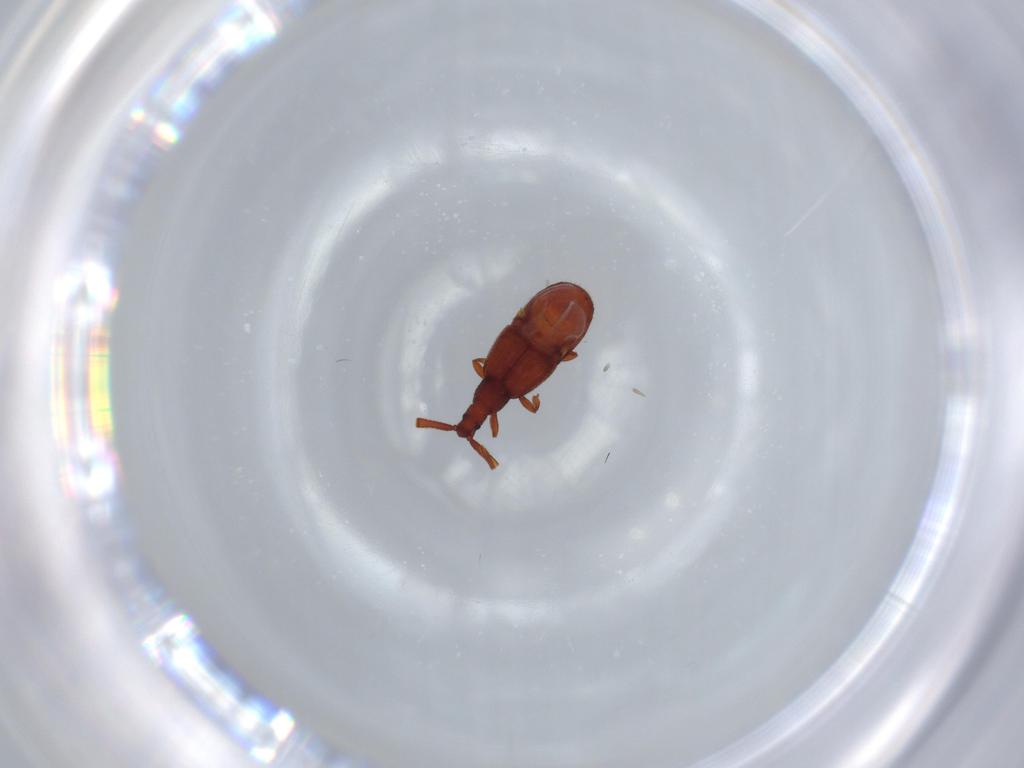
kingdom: Animalia
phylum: Arthropoda
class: Insecta
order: Coleoptera
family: Staphylinidae
